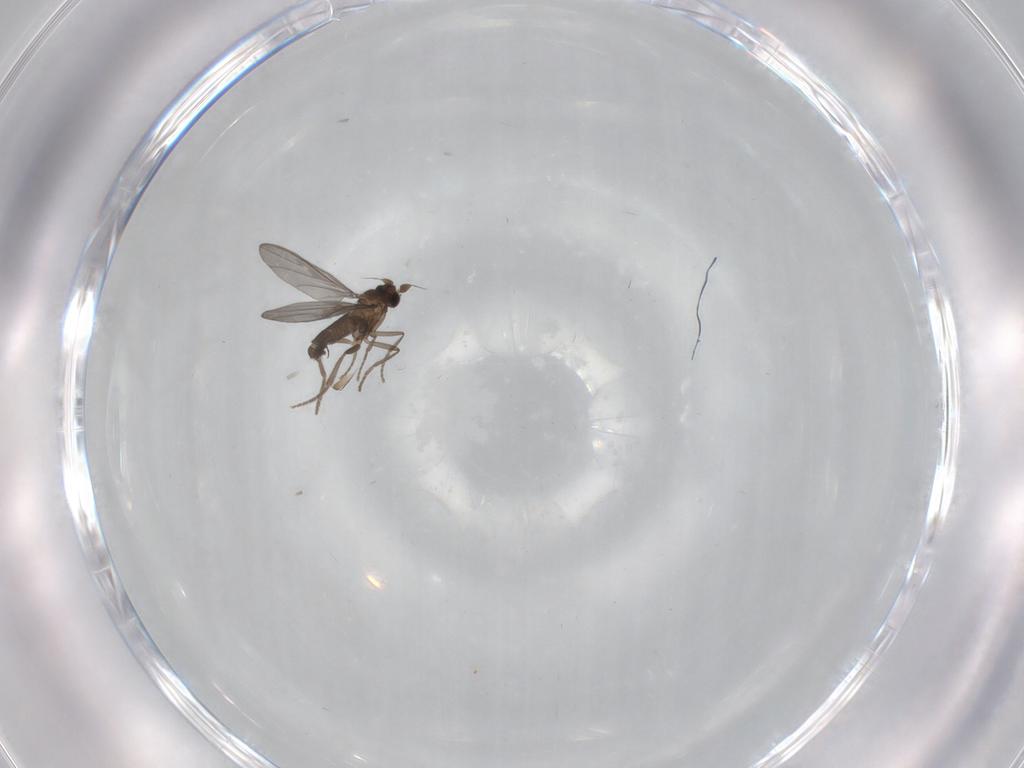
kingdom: Animalia
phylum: Arthropoda
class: Insecta
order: Diptera
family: Phoridae
